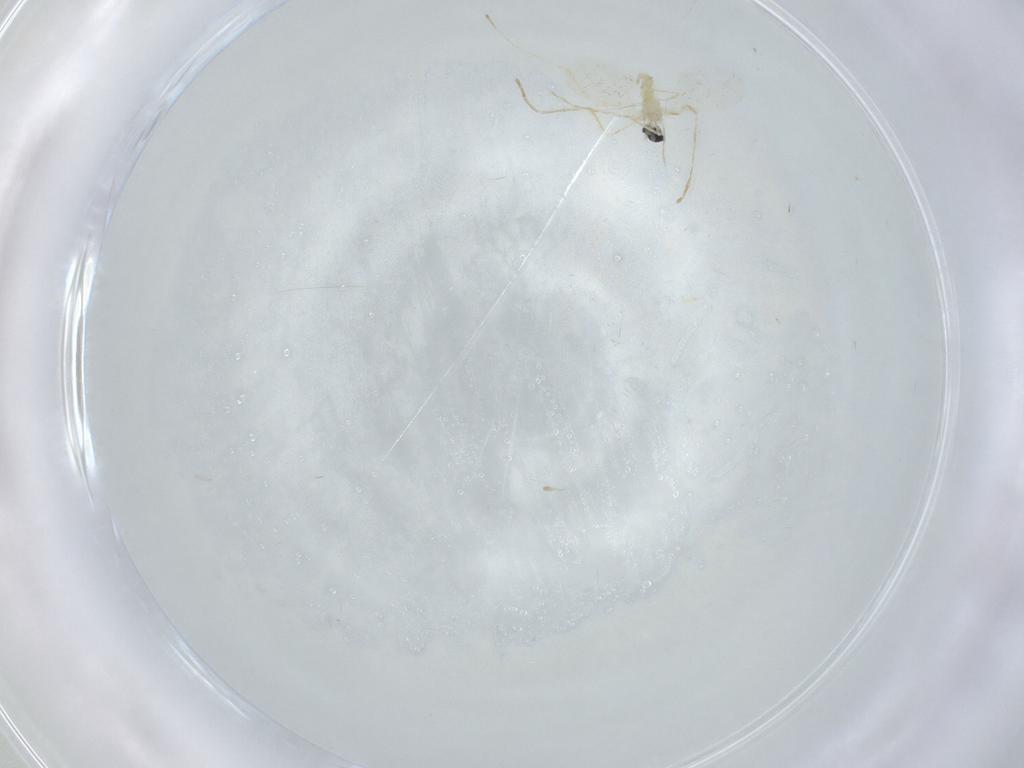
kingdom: Animalia
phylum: Arthropoda
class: Insecta
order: Diptera
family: Cecidomyiidae
